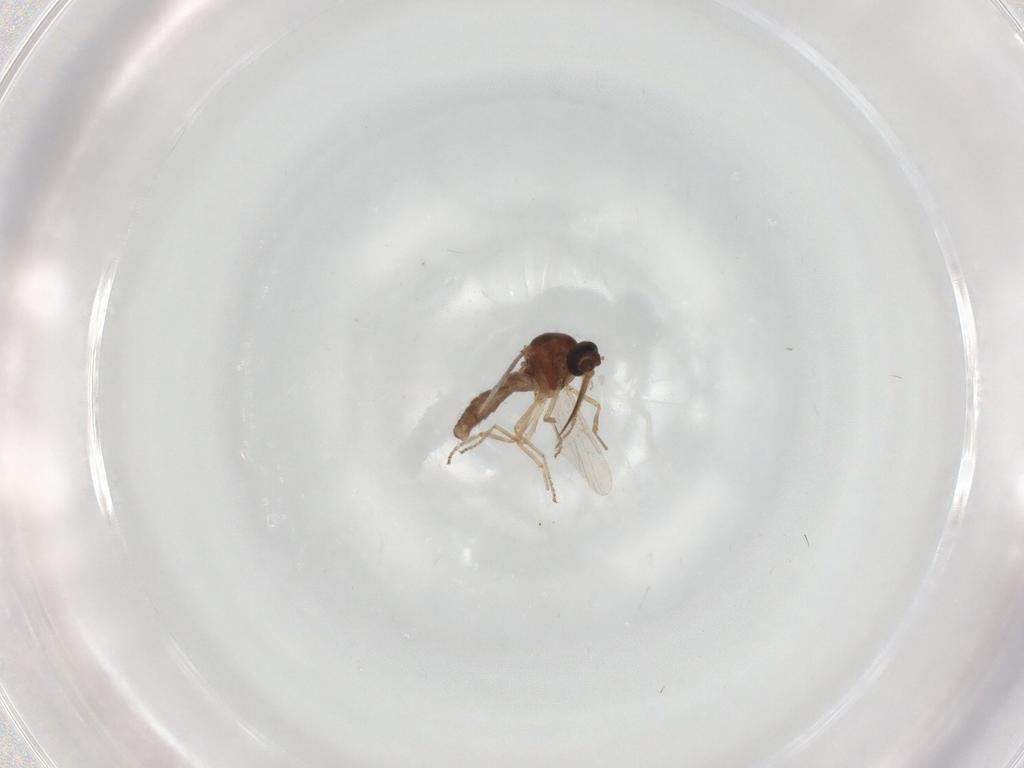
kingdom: Animalia
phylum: Arthropoda
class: Insecta
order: Diptera
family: Ceratopogonidae
